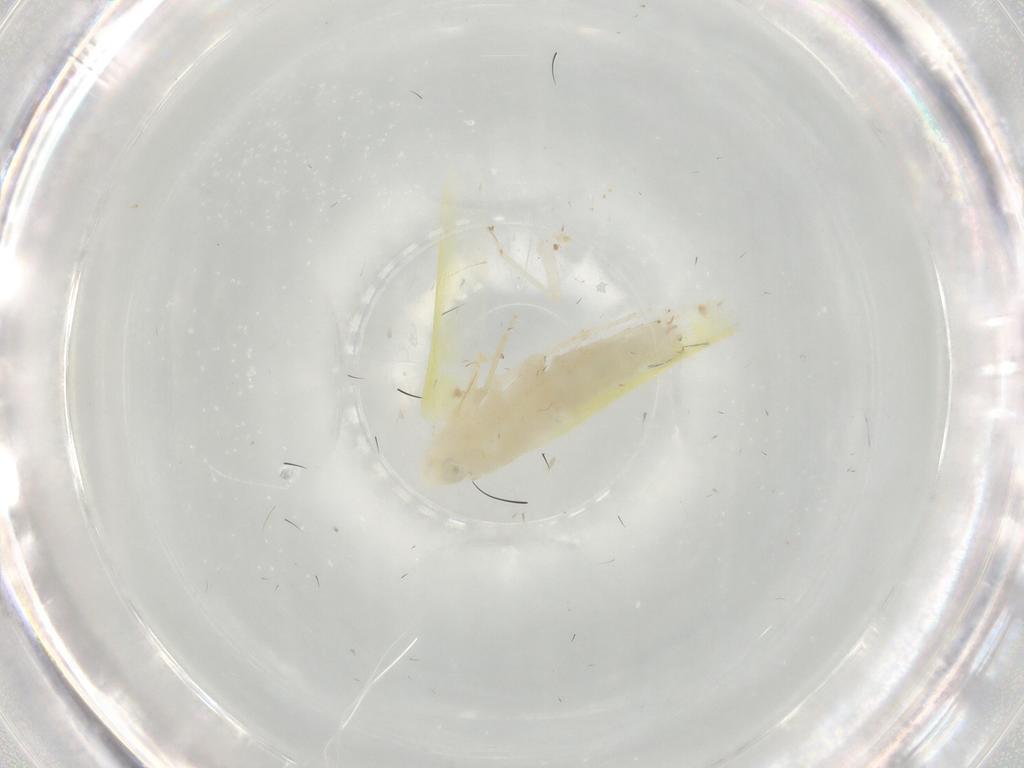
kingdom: Animalia
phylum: Arthropoda
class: Insecta
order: Hemiptera
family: Cicadellidae
